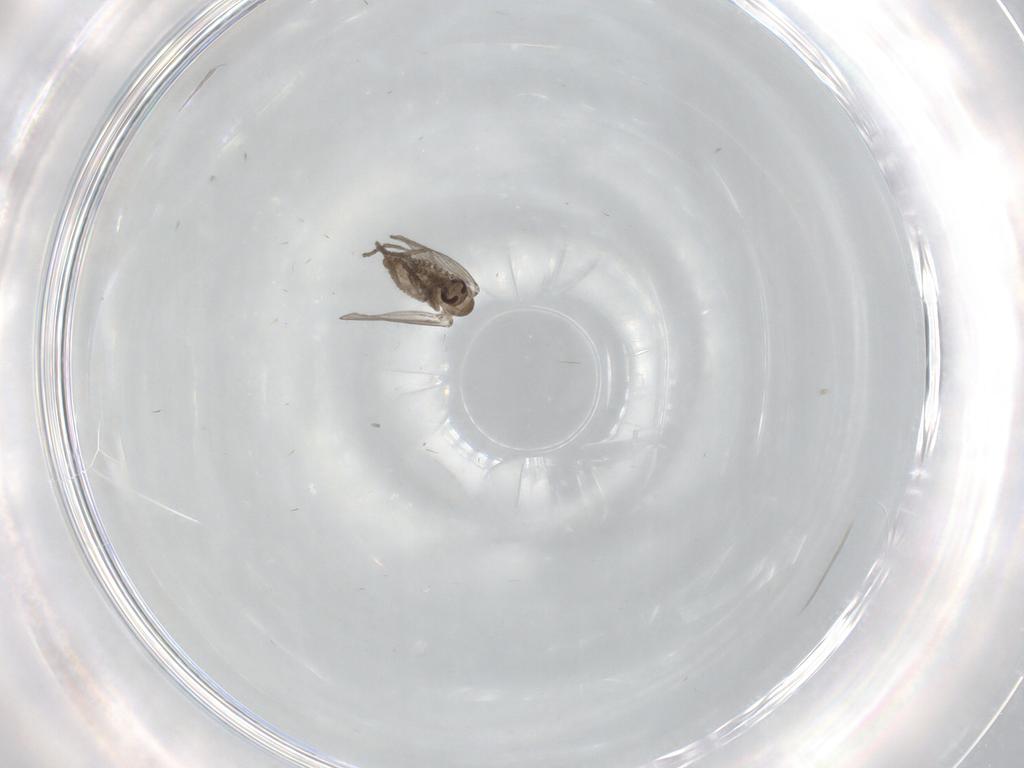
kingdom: Animalia
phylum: Arthropoda
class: Insecta
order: Diptera
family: Cecidomyiidae
